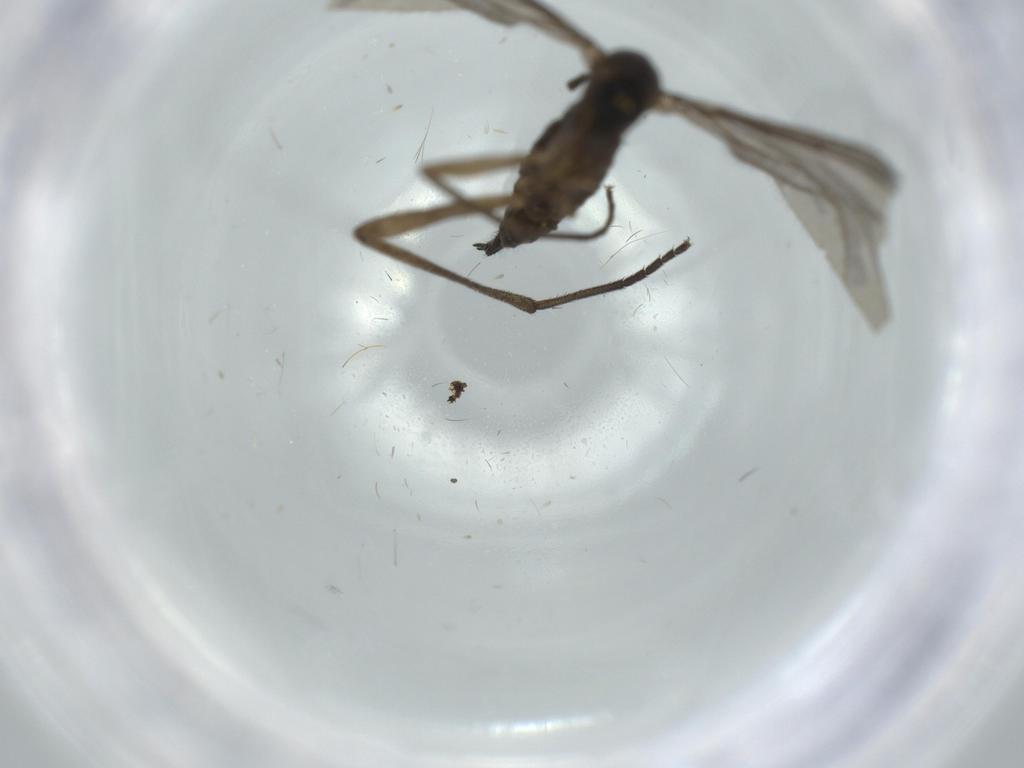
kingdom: Animalia
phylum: Arthropoda
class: Insecta
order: Diptera
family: Sciaridae
